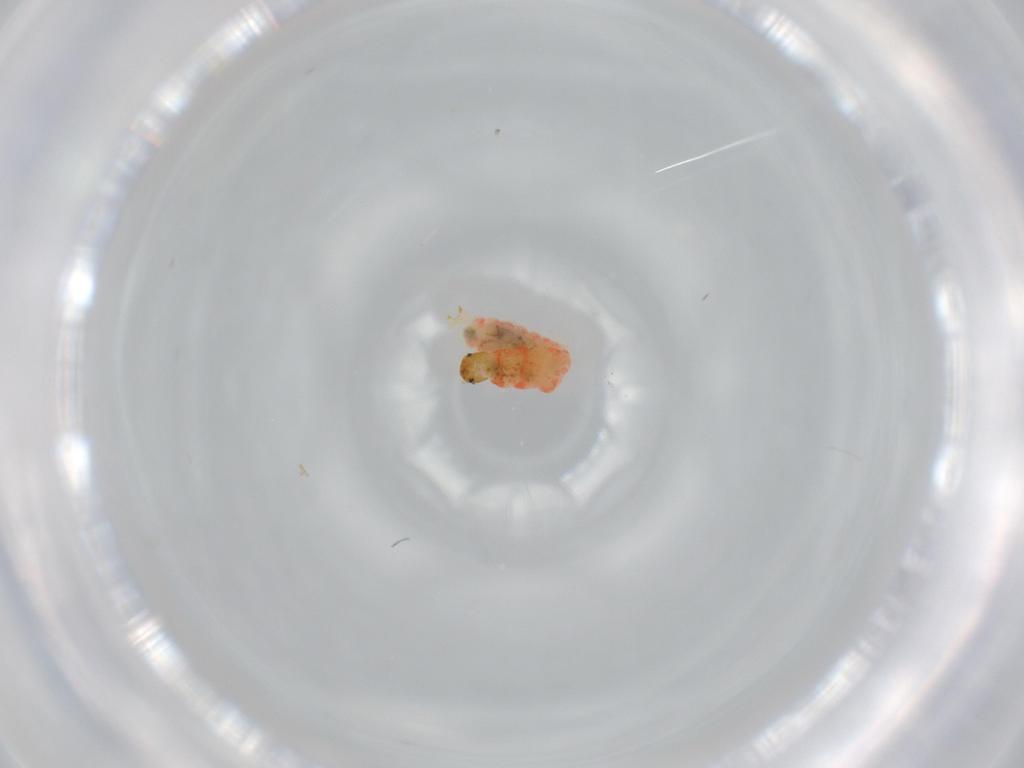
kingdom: Animalia
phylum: Arthropoda
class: Insecta
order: Coleoptera
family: Melyridae
